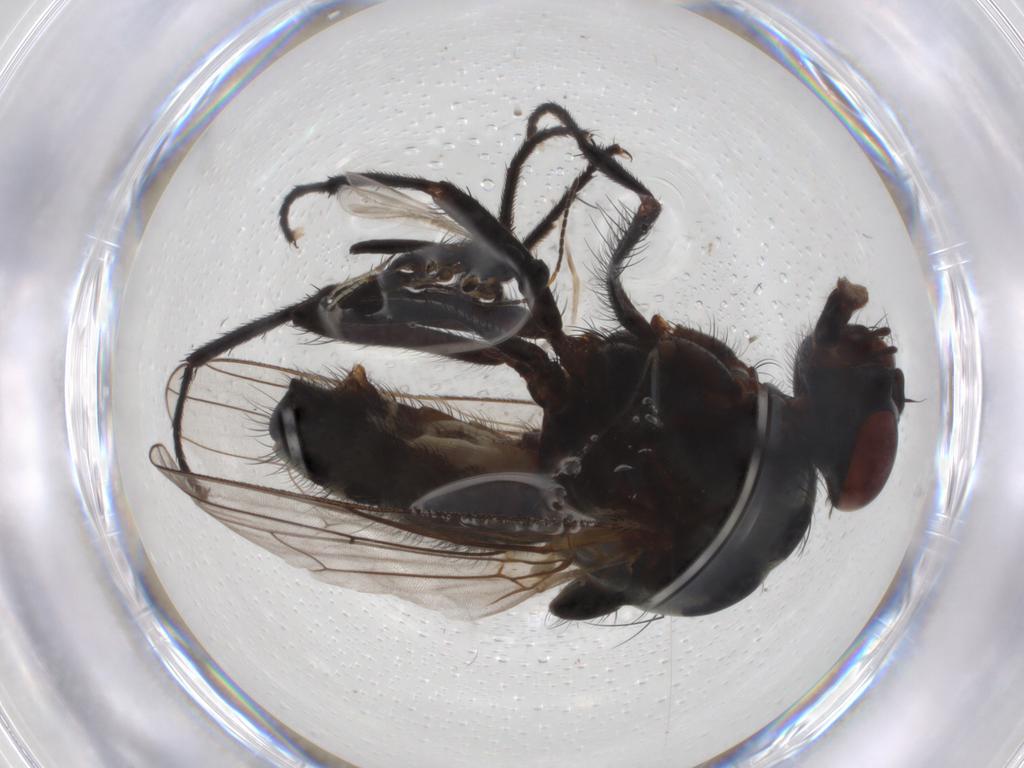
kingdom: Animalia
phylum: Arthropoda
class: Insecta
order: Diptera
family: Anthomyiidae
